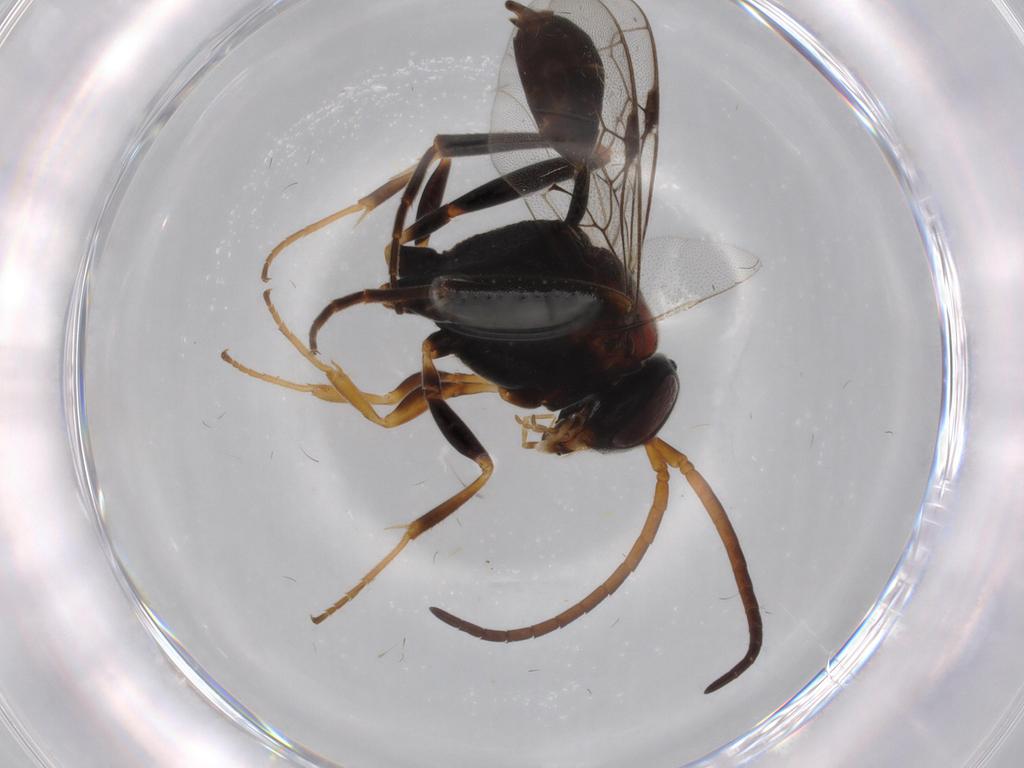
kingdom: Animalia
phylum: Arthropoda
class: Insecta
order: Hymenoptera
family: Evaniidae
